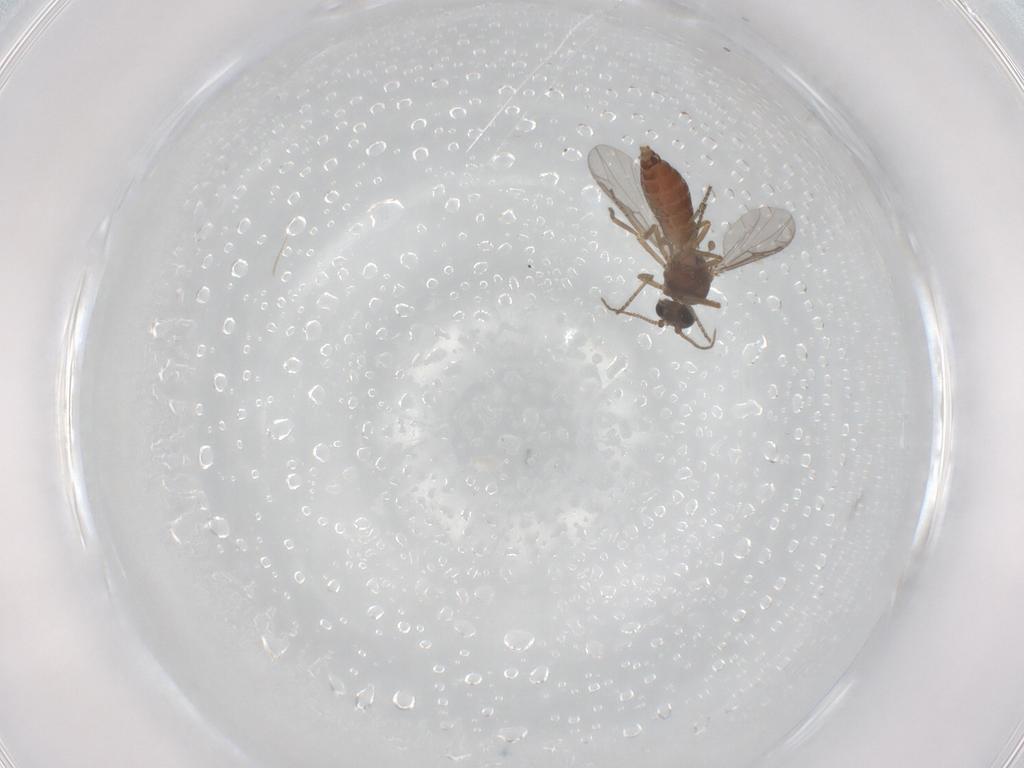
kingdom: Animalia
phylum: Arthropoda
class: Insecta
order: Diptera
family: Ceratopogonidae
